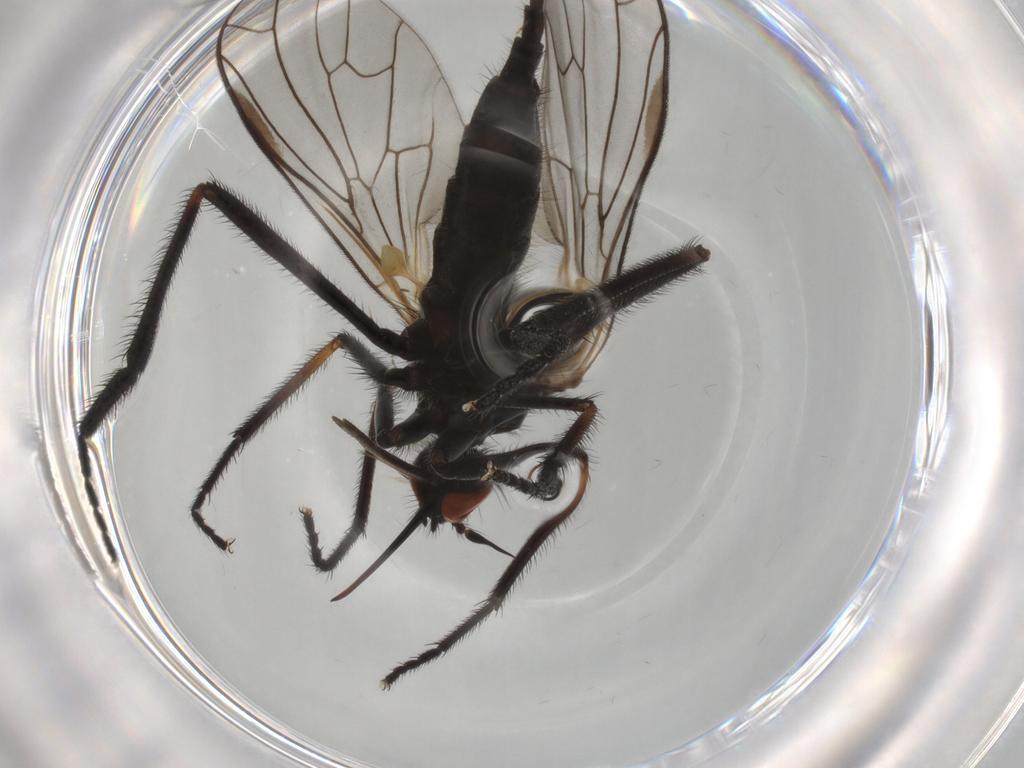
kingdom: Animalia
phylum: Arthropoda
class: Insecta
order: Diptera
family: Empididae
